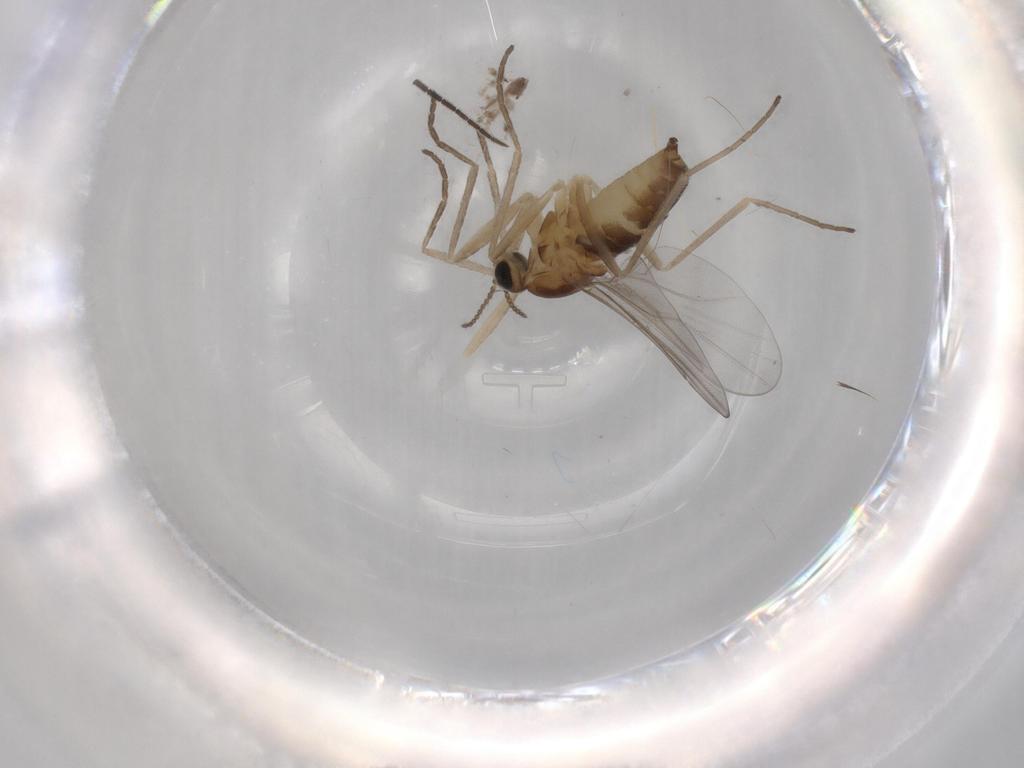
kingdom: Animalia
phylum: Arthropoda
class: Insecta
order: Diptera
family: Cecidomyiidae
